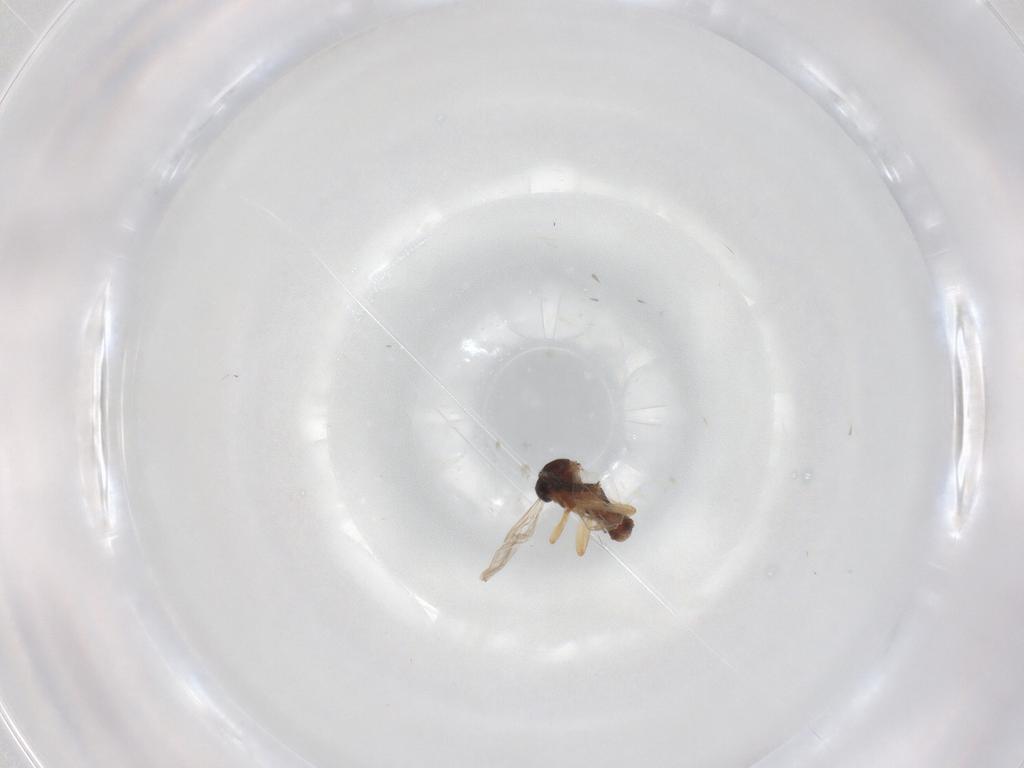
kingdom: Animalia
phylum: Arthropoda
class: Insecta
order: Diptera
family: Ceratopogonidae
